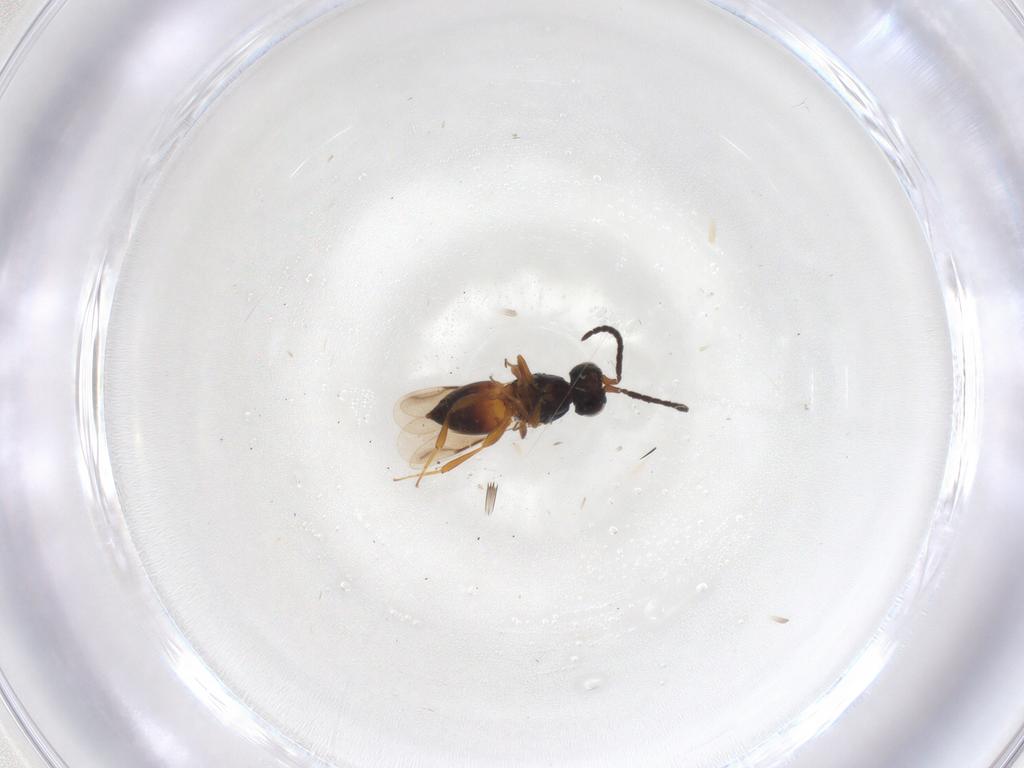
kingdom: Animalia
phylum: Arthropoda
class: Insecta
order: Hymenoptera
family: Ceraphronidae
